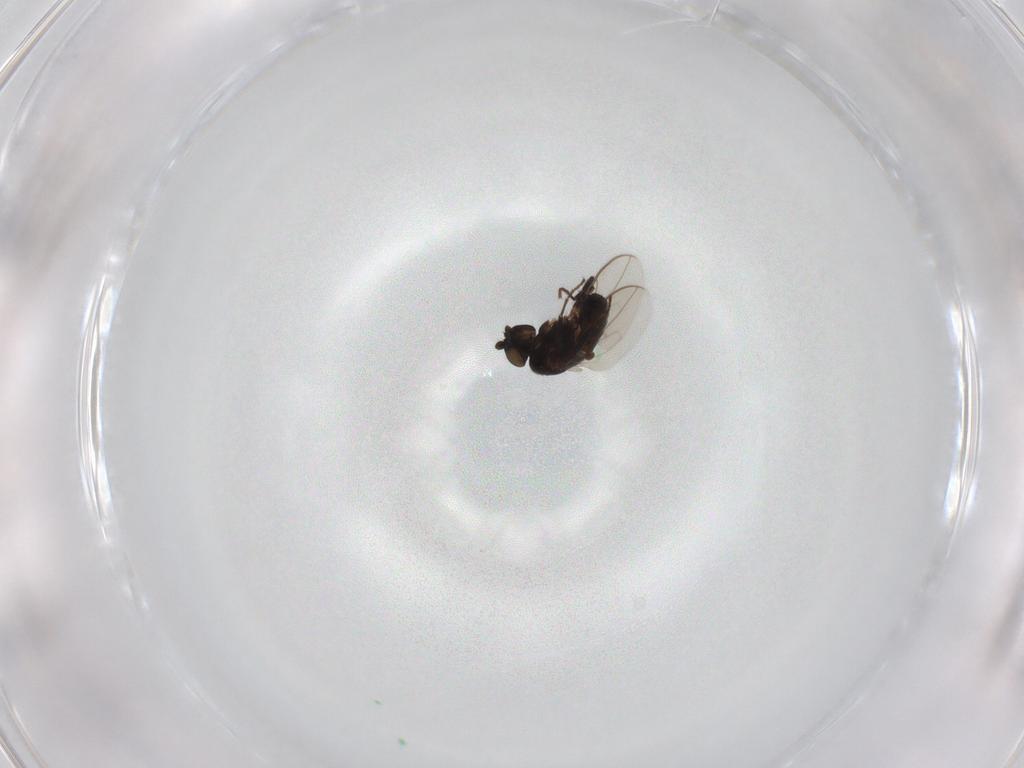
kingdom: Animalia
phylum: Arthropoda
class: Insecta
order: Diptera
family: Sphaeroceridae
